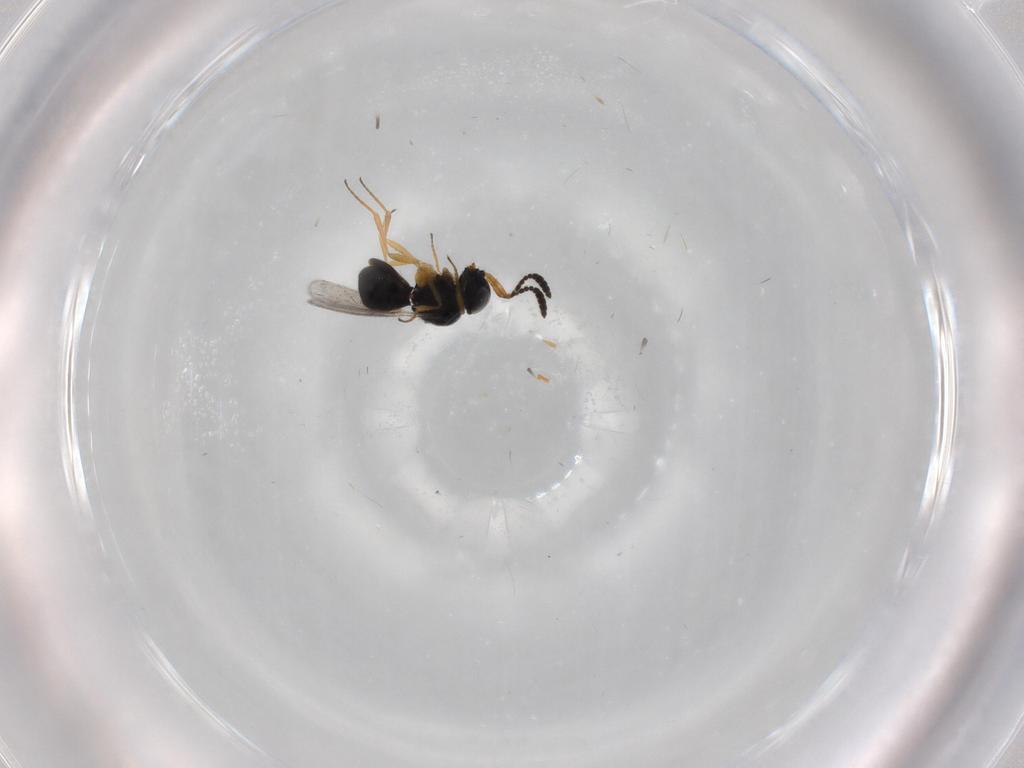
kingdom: Animalia
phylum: Arthropoda
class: Insecta
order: Hymenoptera
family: Scelionidae
